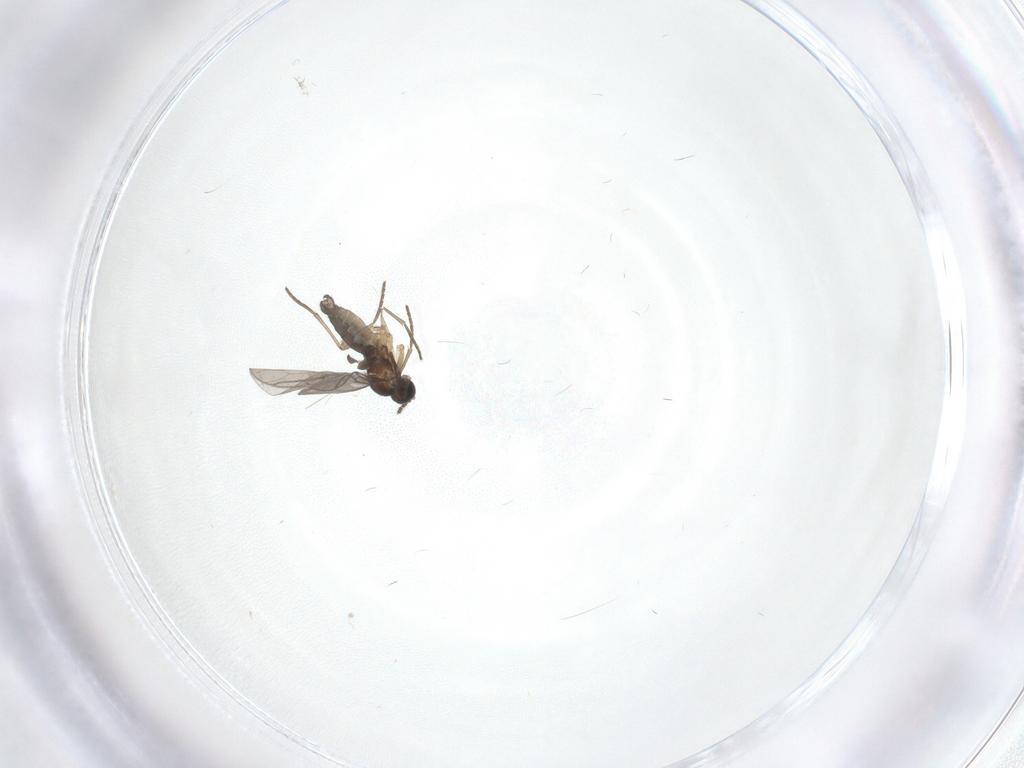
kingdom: Animalia
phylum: Arthropoda
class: Insecta
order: Diptera
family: Sciaridae
